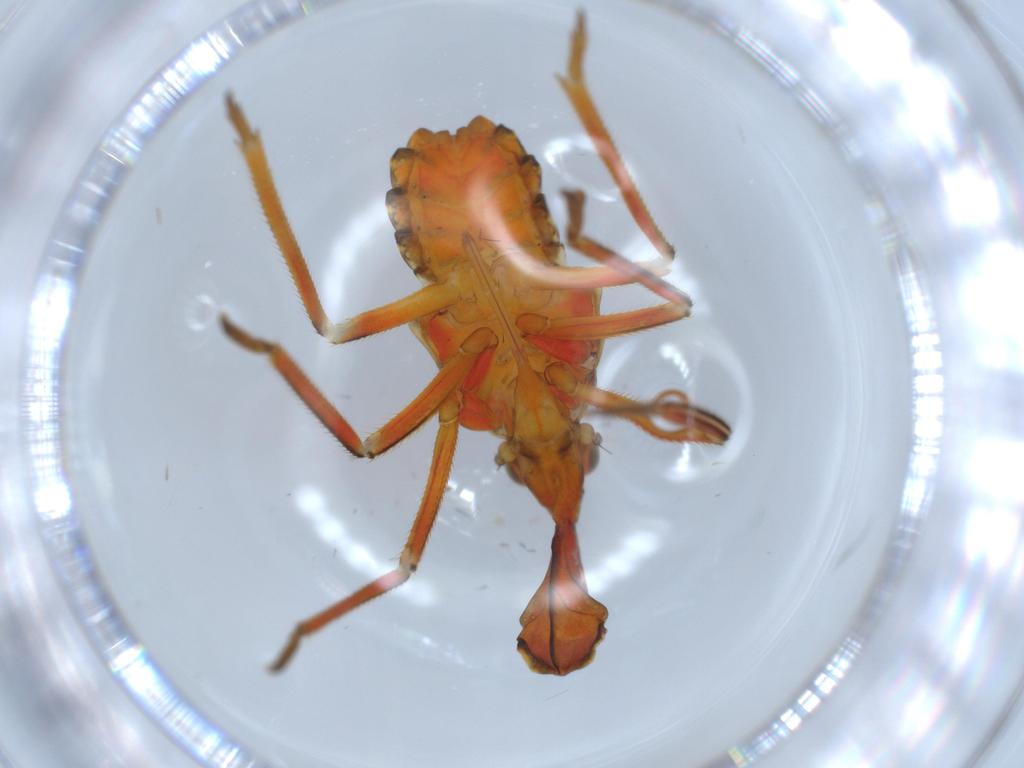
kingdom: Animalia
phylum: Arthropoda
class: Insecta
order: Hemiptera
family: Fulgoridae
